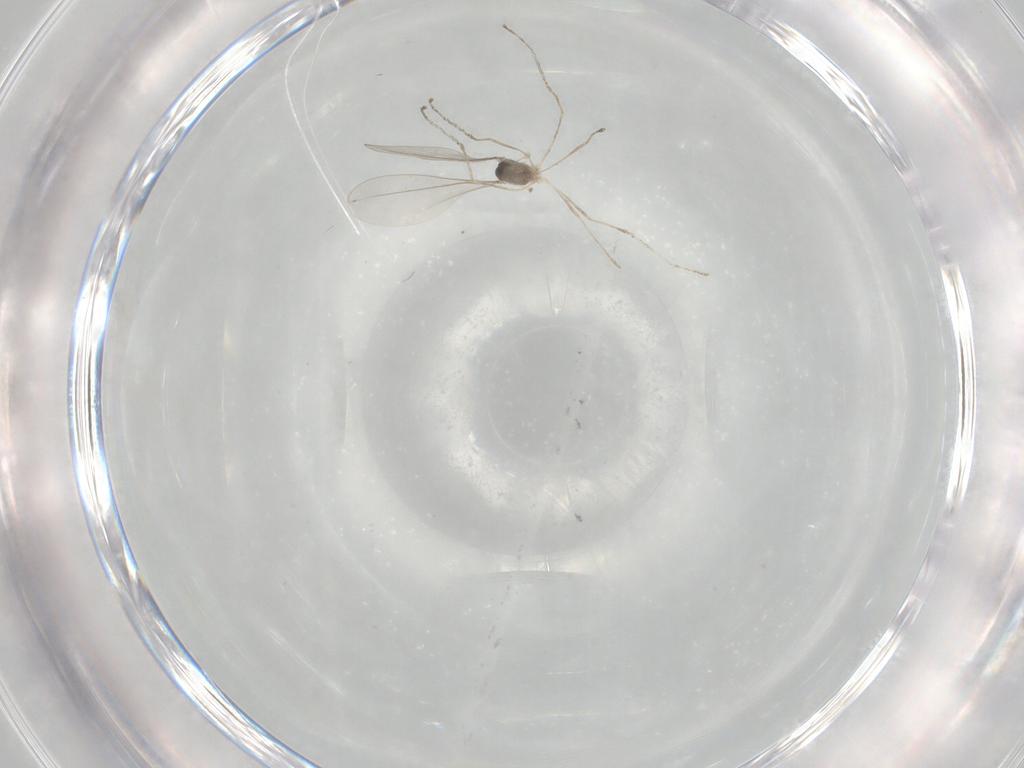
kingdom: Animalia
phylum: Arthropoda
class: Insecta
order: Diptera
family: Cecidomyiidae
